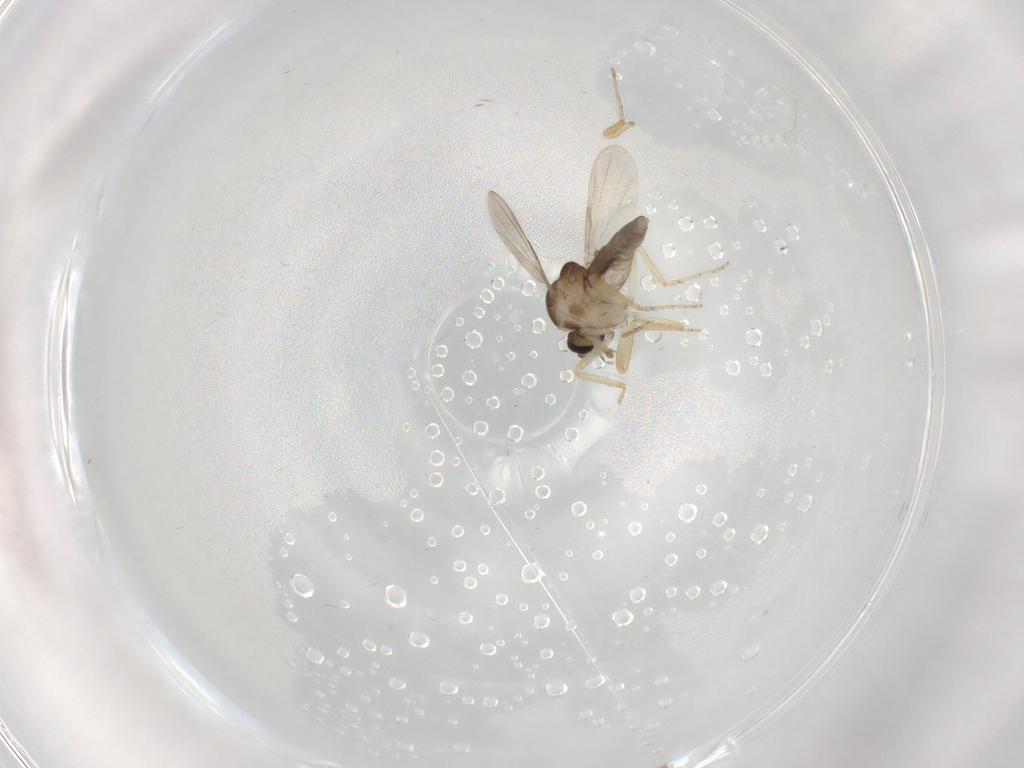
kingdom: Animalia
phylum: Arthropoda
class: Insecta
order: Diptera
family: Ceratopogonidae
